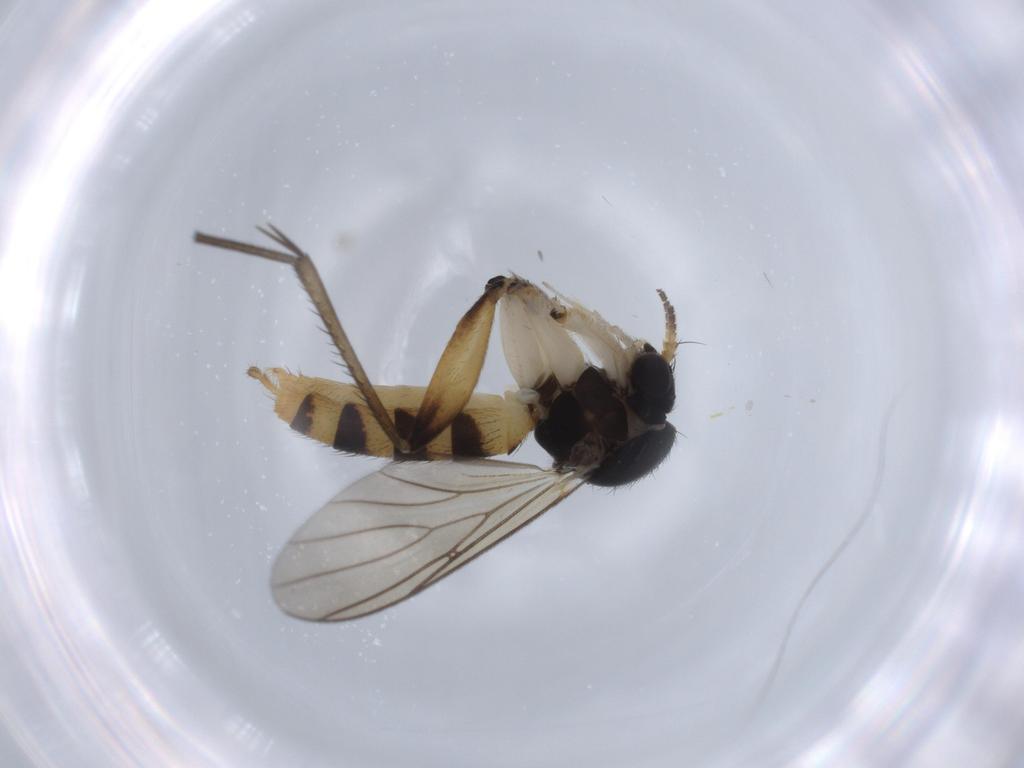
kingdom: Animalia
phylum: Arthropoda
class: Insecta
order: Diptera
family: Mycetophilidae
